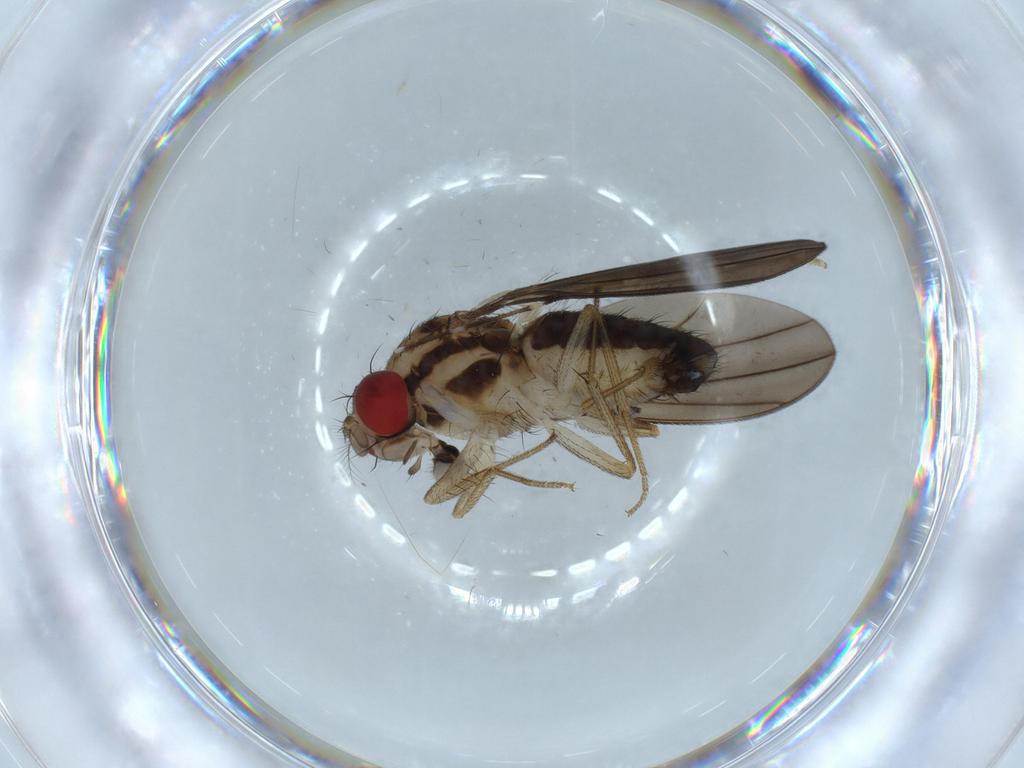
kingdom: Animalia
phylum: Arthropoda
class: Insecta
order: Diptera
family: Drosophilidae
